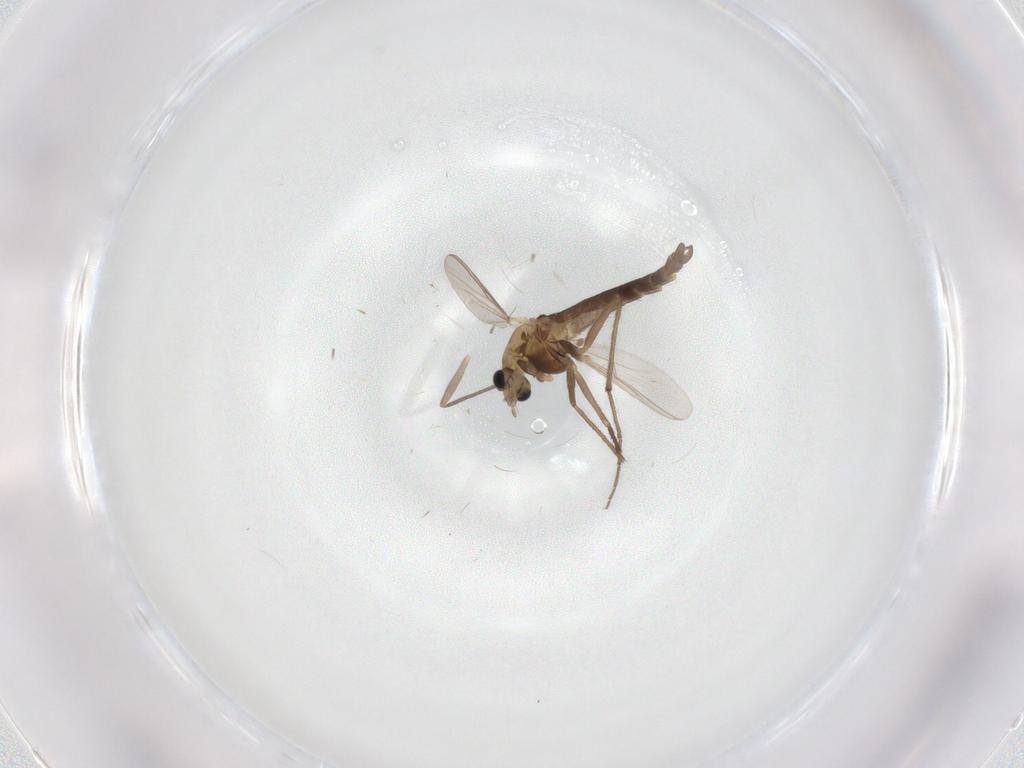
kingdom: Animalia
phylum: Arthropoda
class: Insecta
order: Diptera
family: Chironomidae
